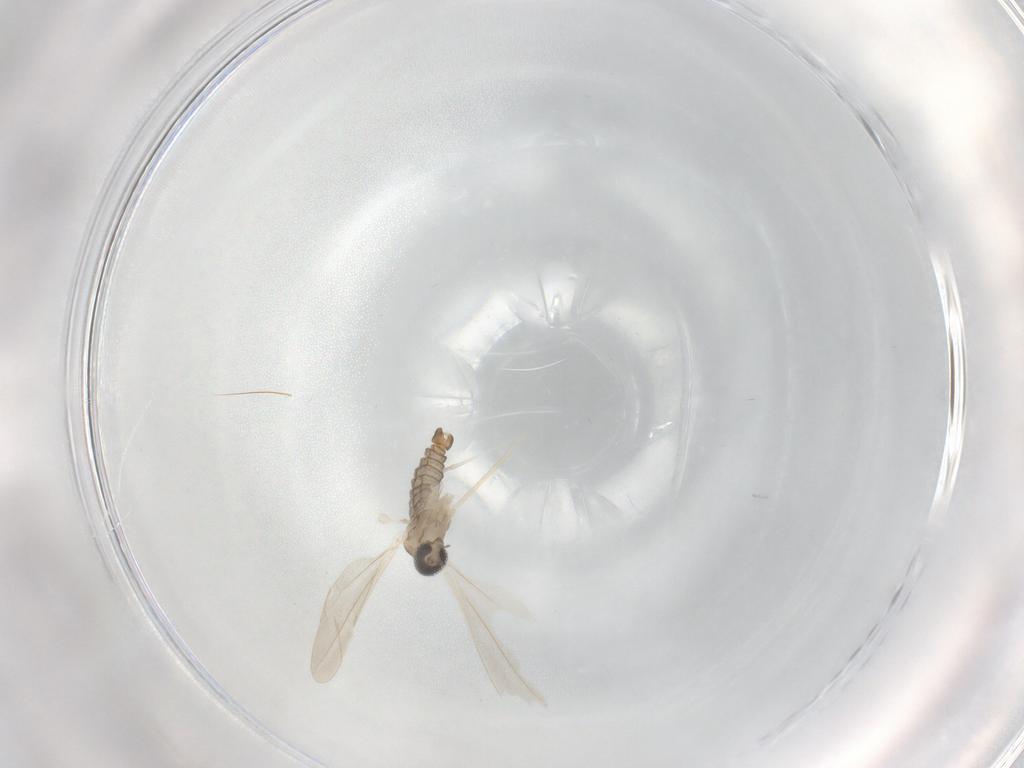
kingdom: Animalia
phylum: Arthropoda
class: Insecta
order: Diptera
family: Cecidomyiidae
